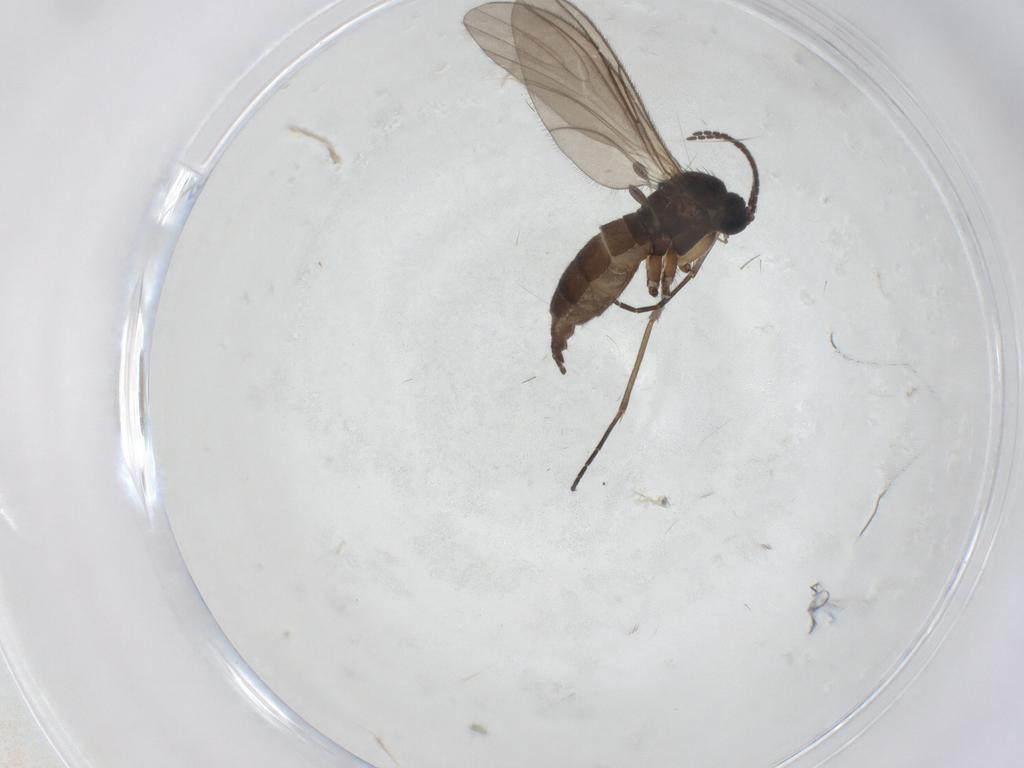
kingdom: Animalia
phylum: Arthropoda
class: Insecta
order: Diptera
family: Sciaridae
